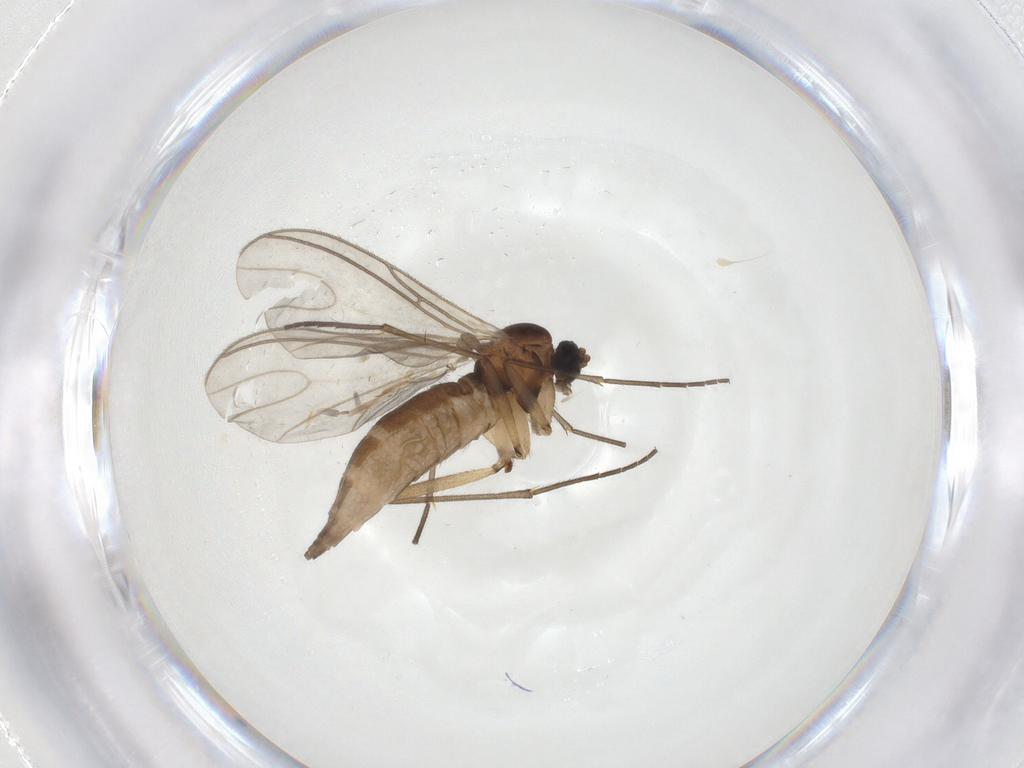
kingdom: Animalia
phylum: Arthropoda
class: Insecta
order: Diptera
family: Sciaridae
